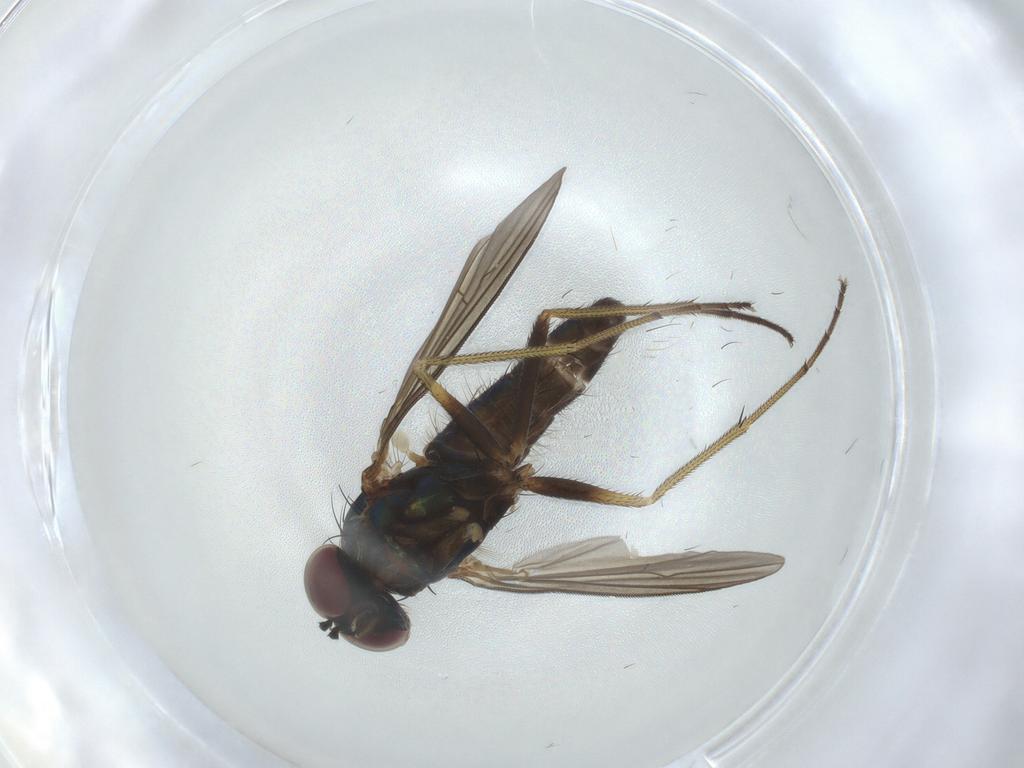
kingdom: Animalia
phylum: Arthropoda
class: Insecta
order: Diptera
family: Dolichopodidae
